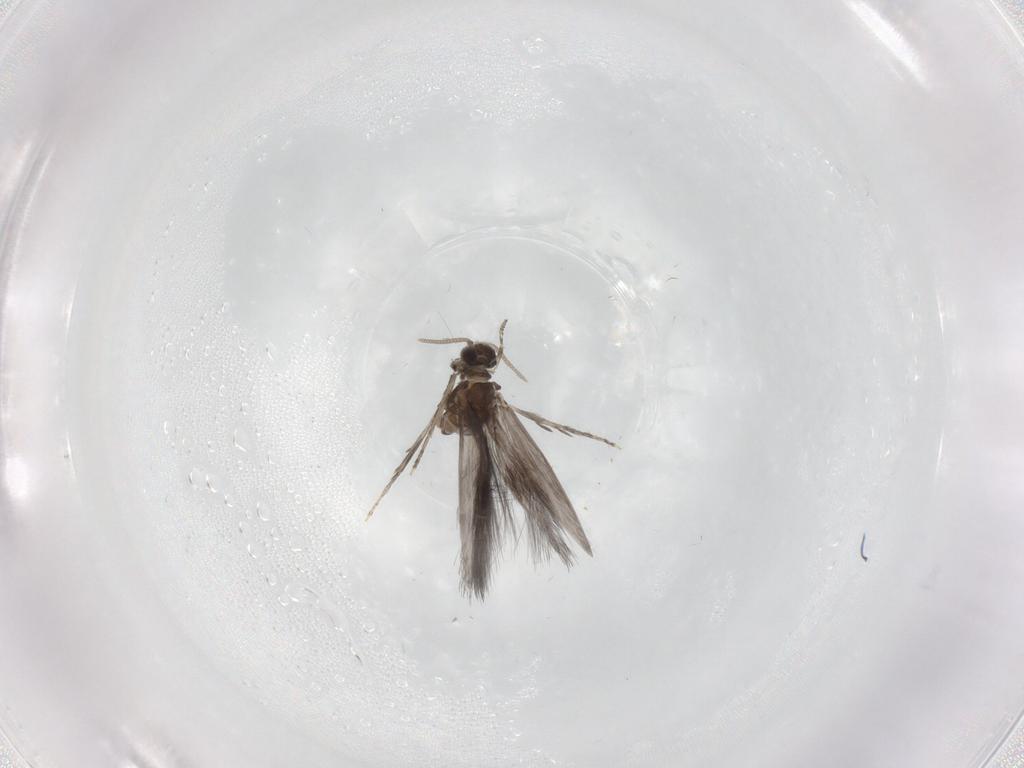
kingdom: Animalia
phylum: Arthropoda
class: Insecta
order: Trichoptera
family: Hydroptilidae
